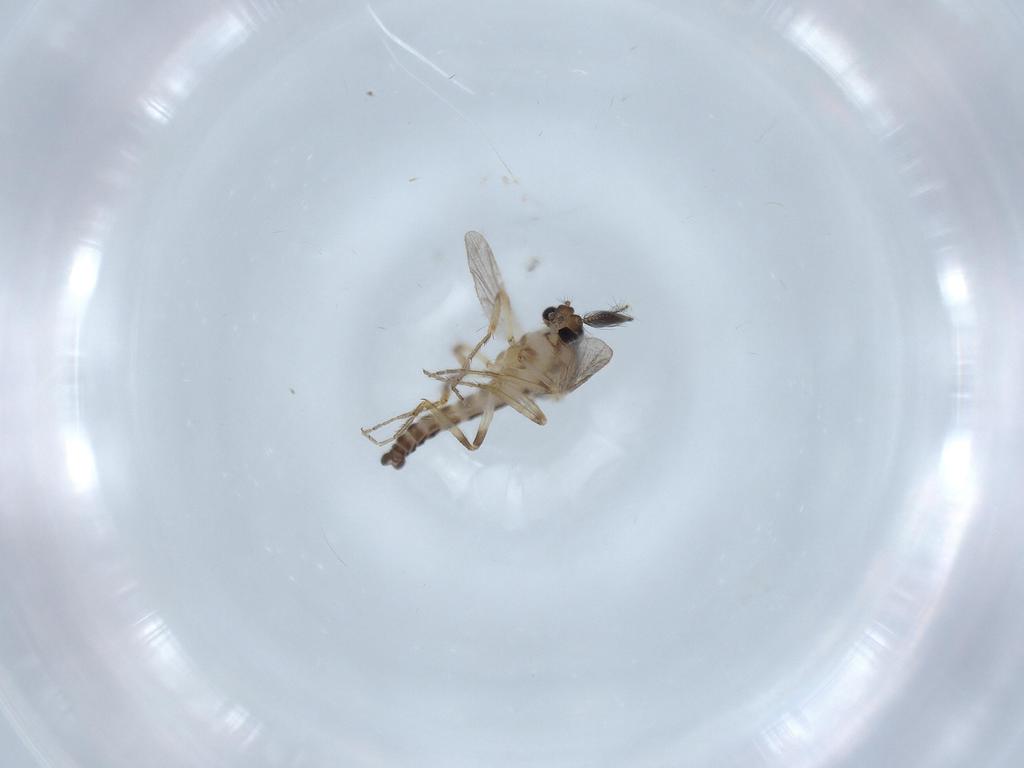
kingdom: Animalia
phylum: Arthropoda
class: Insecta
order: Diptera
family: Ceratopogonidae
